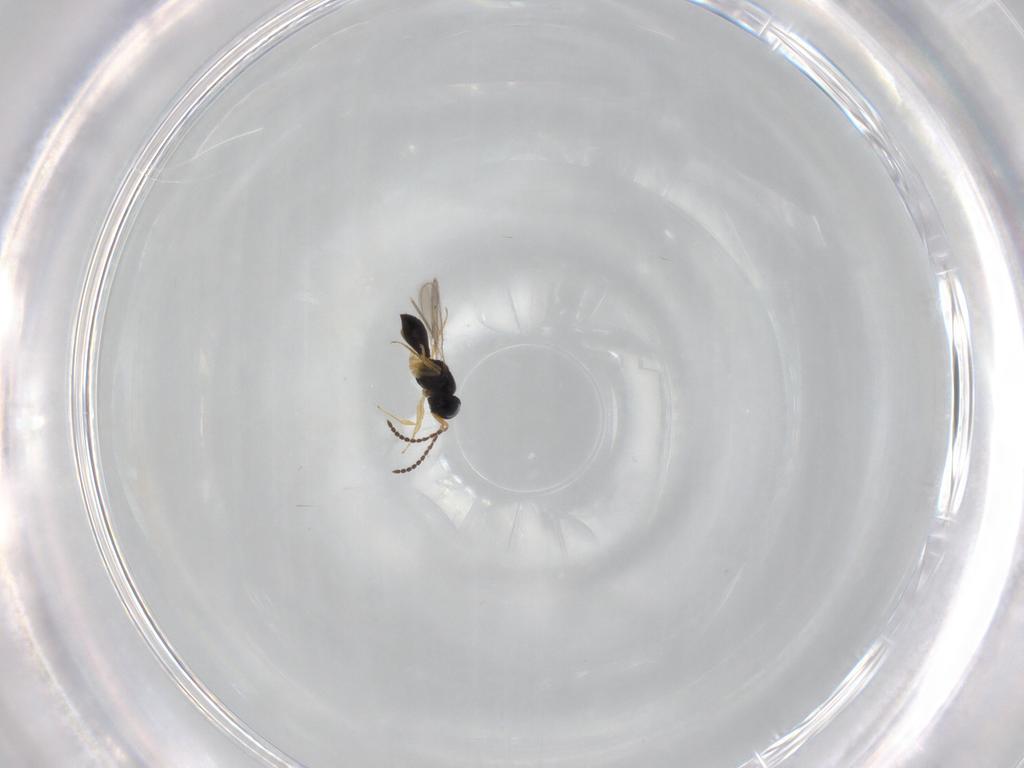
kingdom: Animalia
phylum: Arthropoda
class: Insecta
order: Hymenoptera
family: Scelionidae
